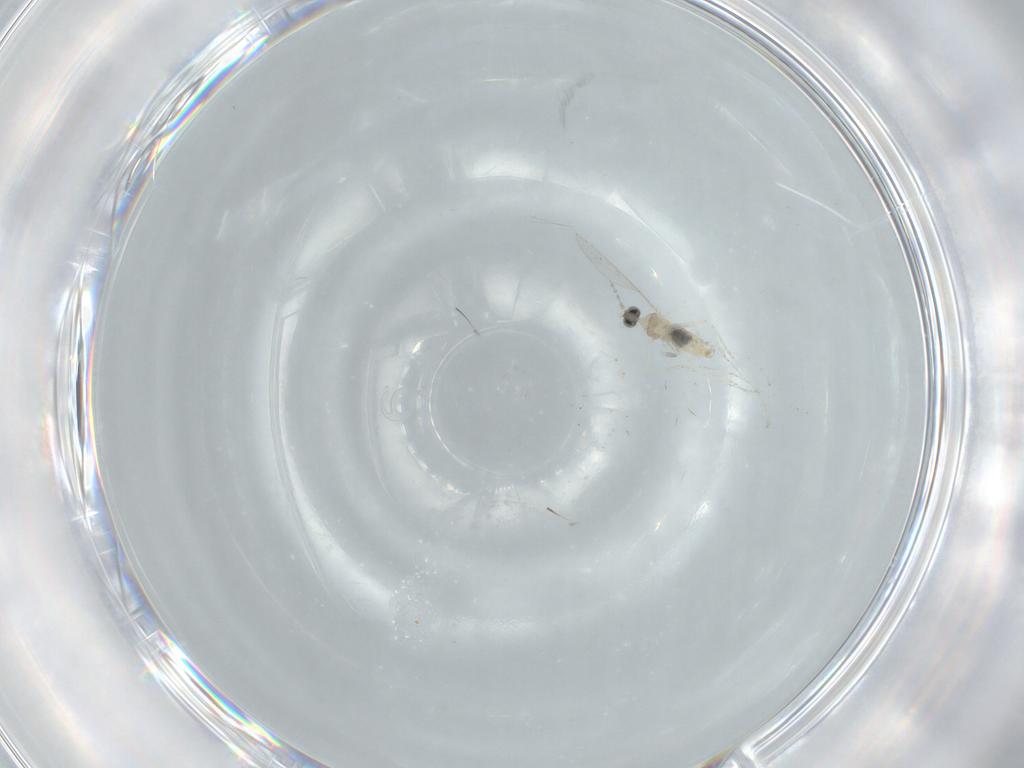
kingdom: Animalia
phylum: Arthropoda
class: Insecta
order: Diptera
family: Cecidomyiidae
